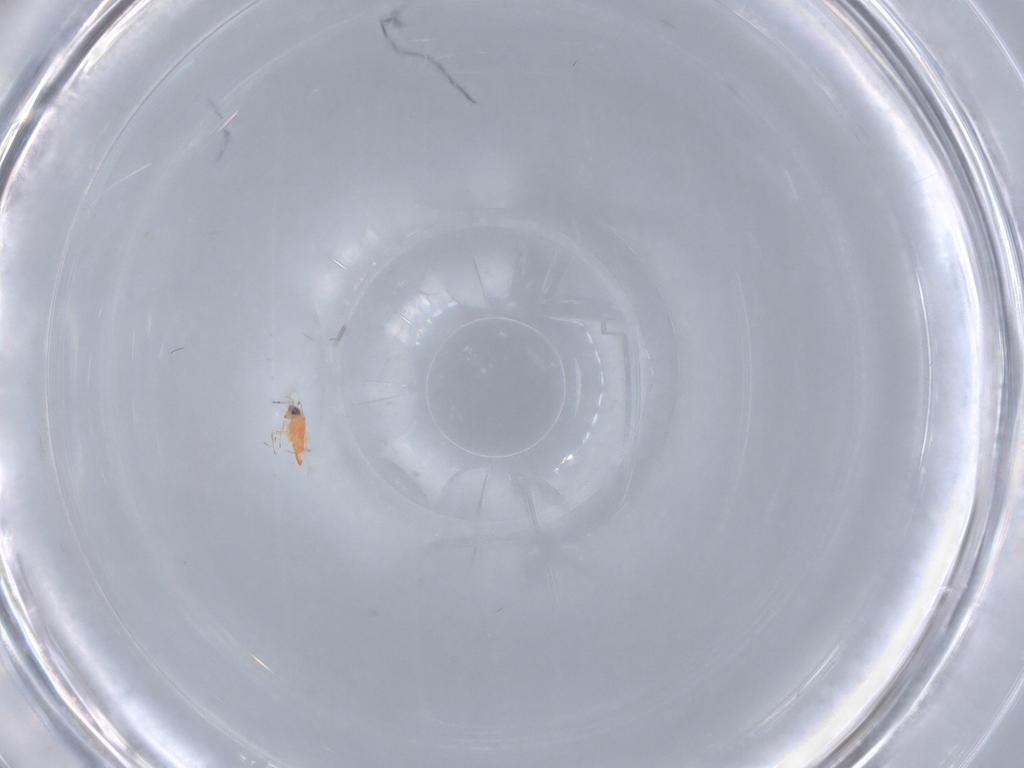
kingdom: Animalia
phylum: Arthropoda
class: Insecta
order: Hymenoptera
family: Trichogrammatidae
